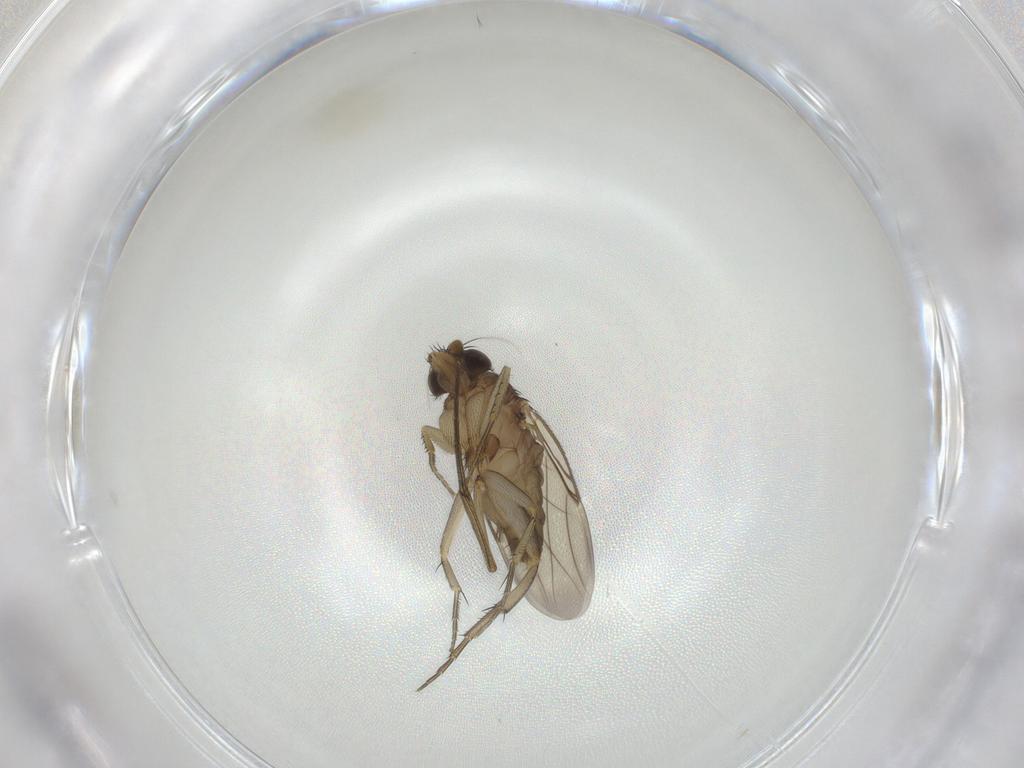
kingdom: Animalia
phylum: Arthropoda
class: Insecta
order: Diptera
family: Phoridae
